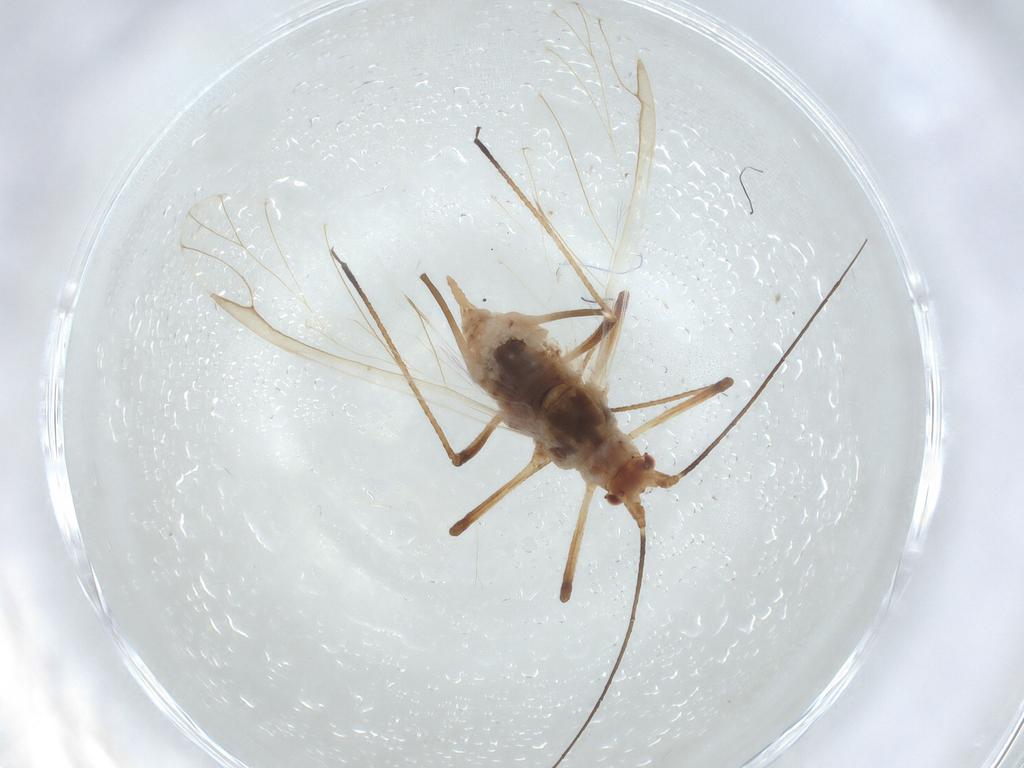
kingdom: Animalia
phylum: Arthropoda
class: Insecta
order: Hemiptera
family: Aphididae
